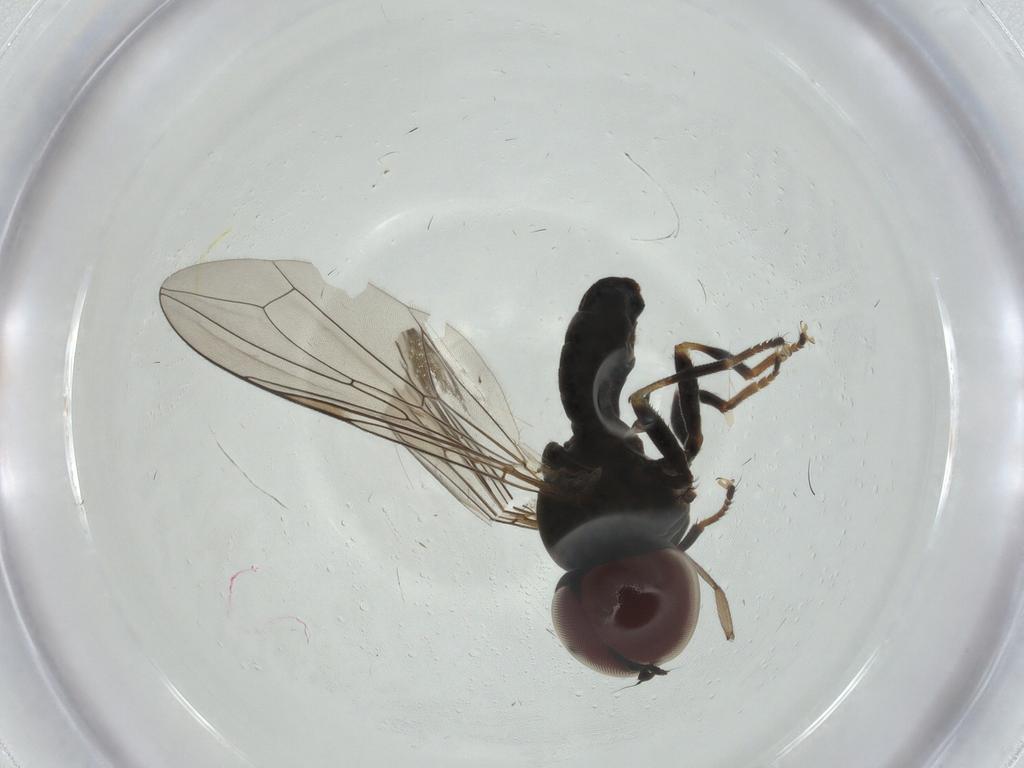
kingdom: Animalia
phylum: Arthropoda
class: Insecta
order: Diptera
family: Pipunculidae
